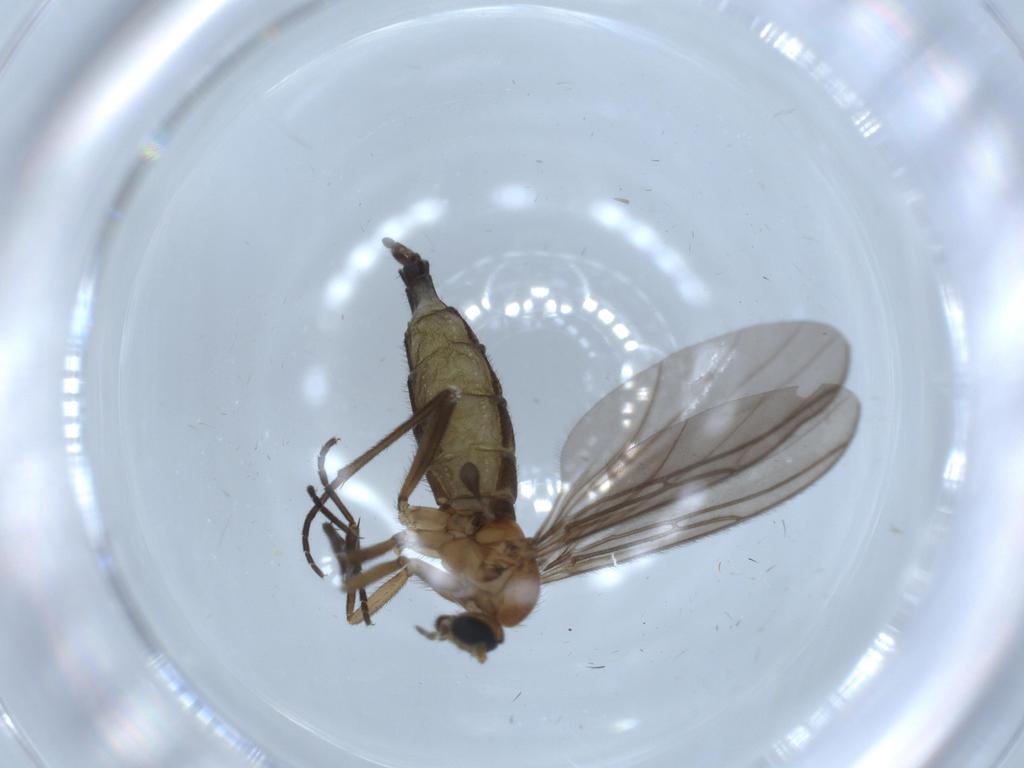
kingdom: Animalia
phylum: Arthropoda
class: Insecta
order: Diptera
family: Sciaridae
